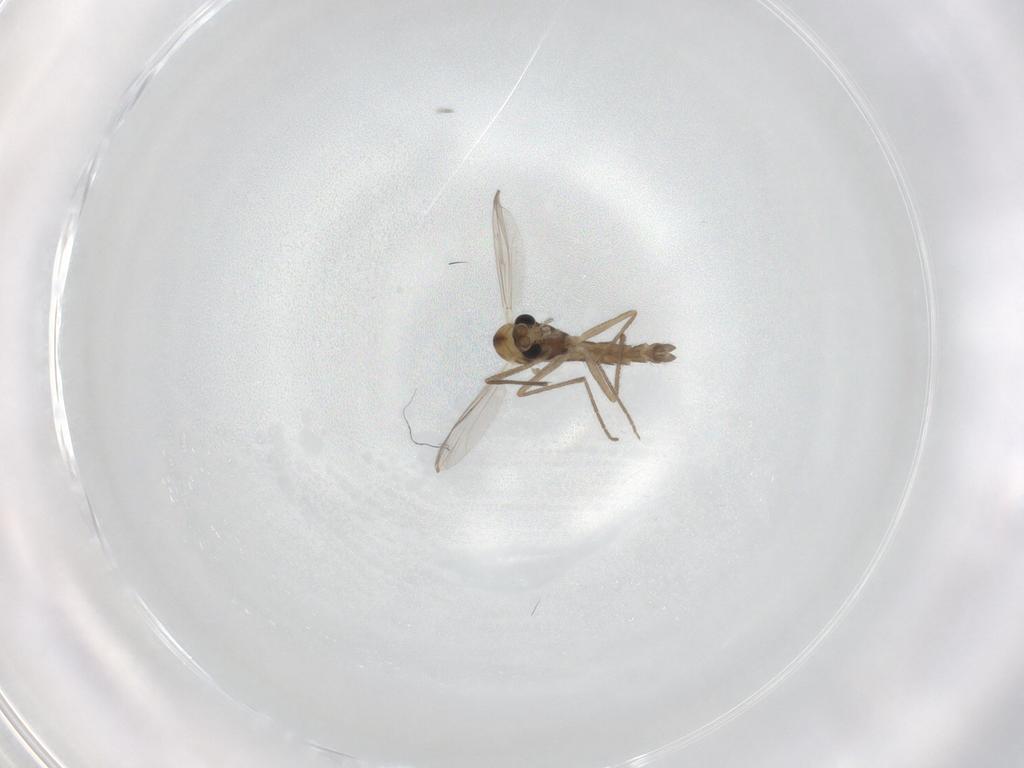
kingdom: Animalia
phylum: Arthropoda
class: Insecta
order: Diptera
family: Chironomidae
